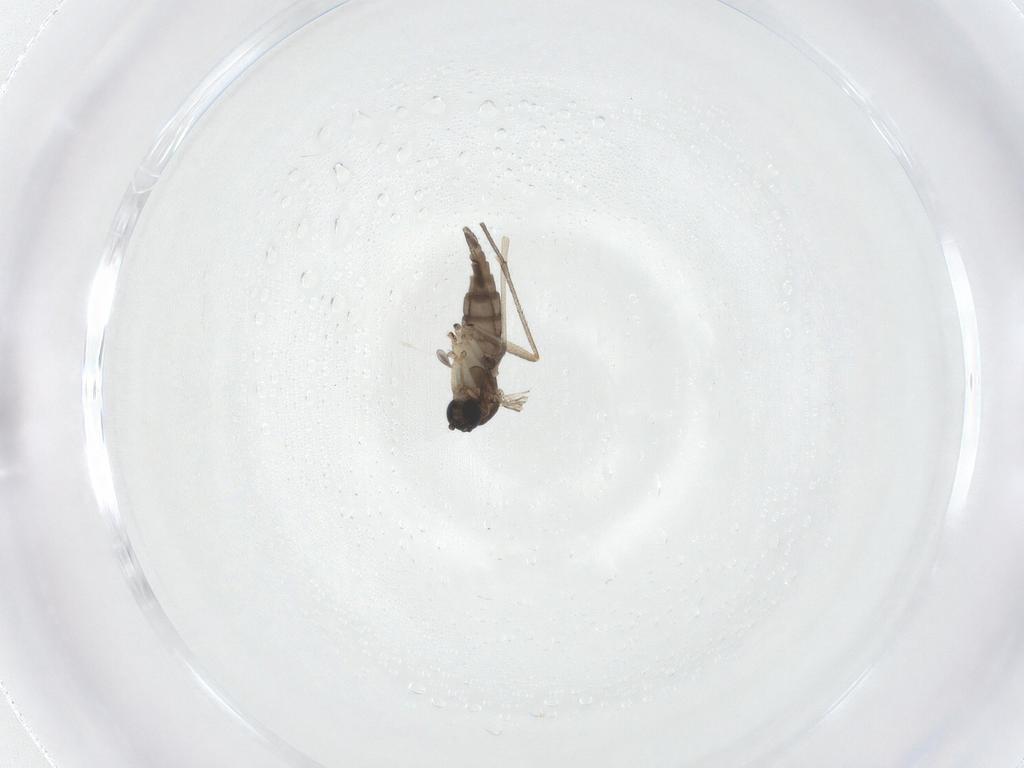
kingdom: Animalia
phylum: Arthropoda
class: Insecta
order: Diptera
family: Sciaridae
